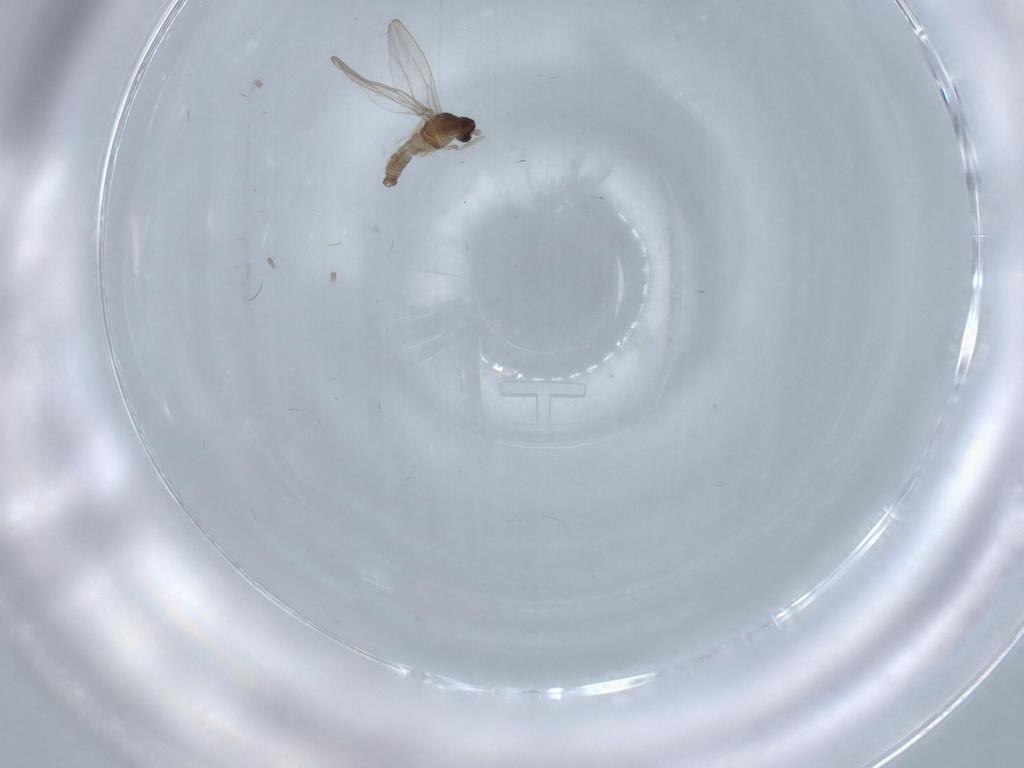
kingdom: Animalia
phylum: Arthropoda
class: Insecta
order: Diptera
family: Cecidomyiidae
